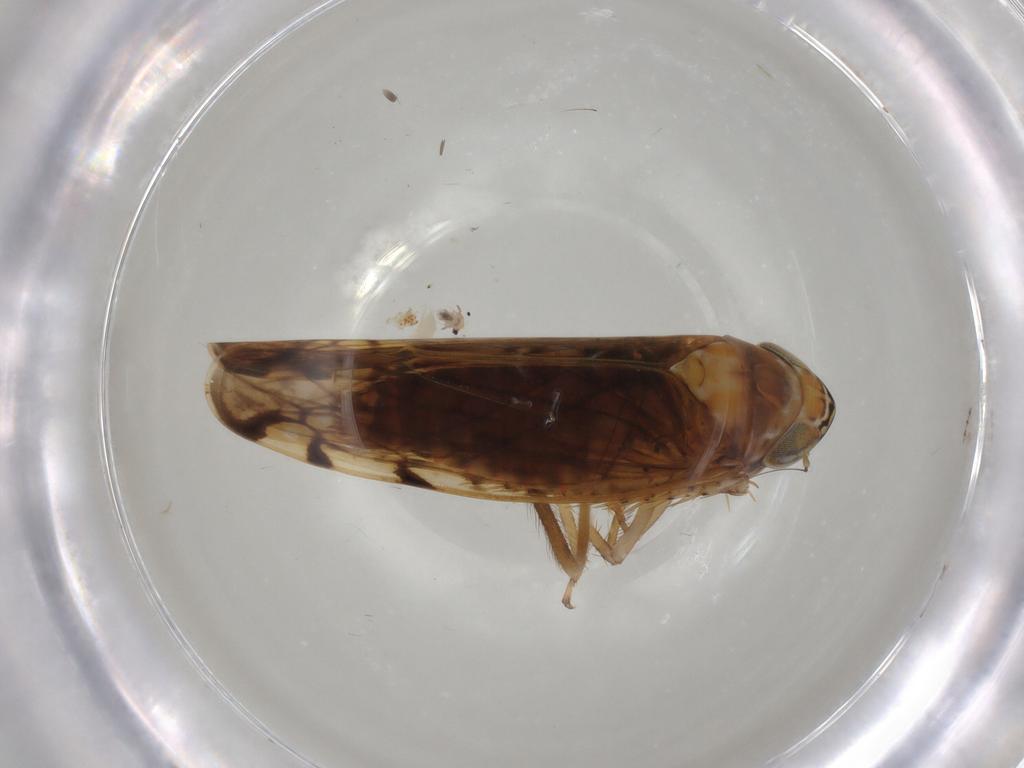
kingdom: Animalia
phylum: Arthropoda
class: Insecta
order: Hemiptera
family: Cicadellidae
